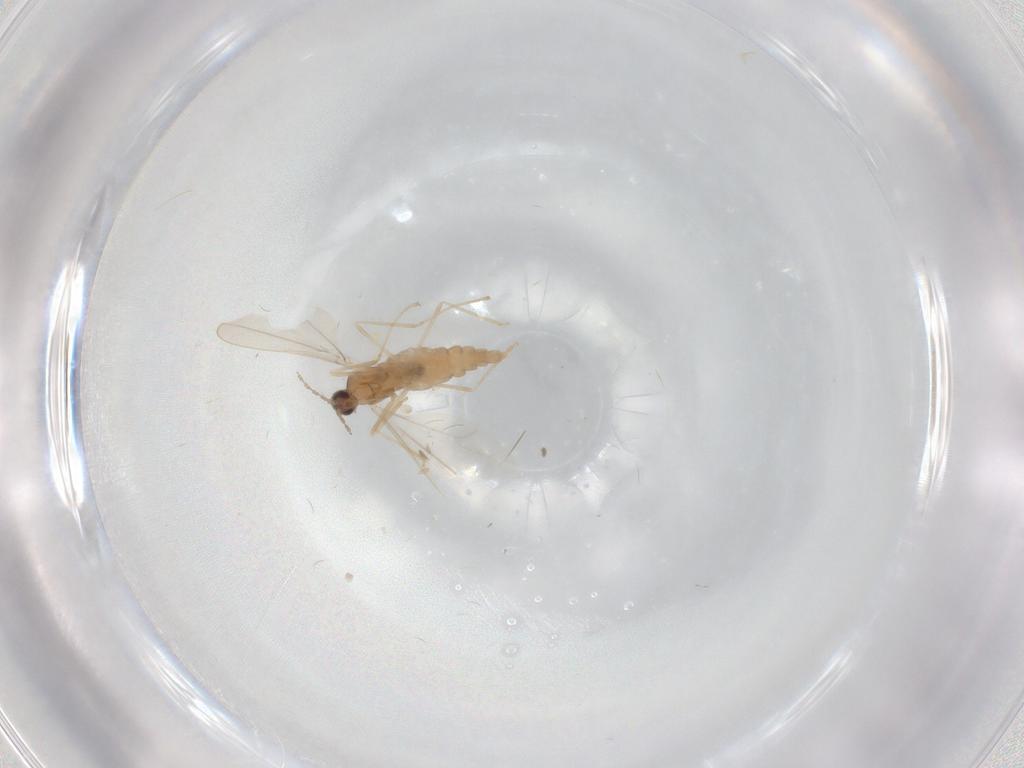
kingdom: Animalia
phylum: Arthropoda
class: Insecta
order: Diptera
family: Cecidomyiidae
